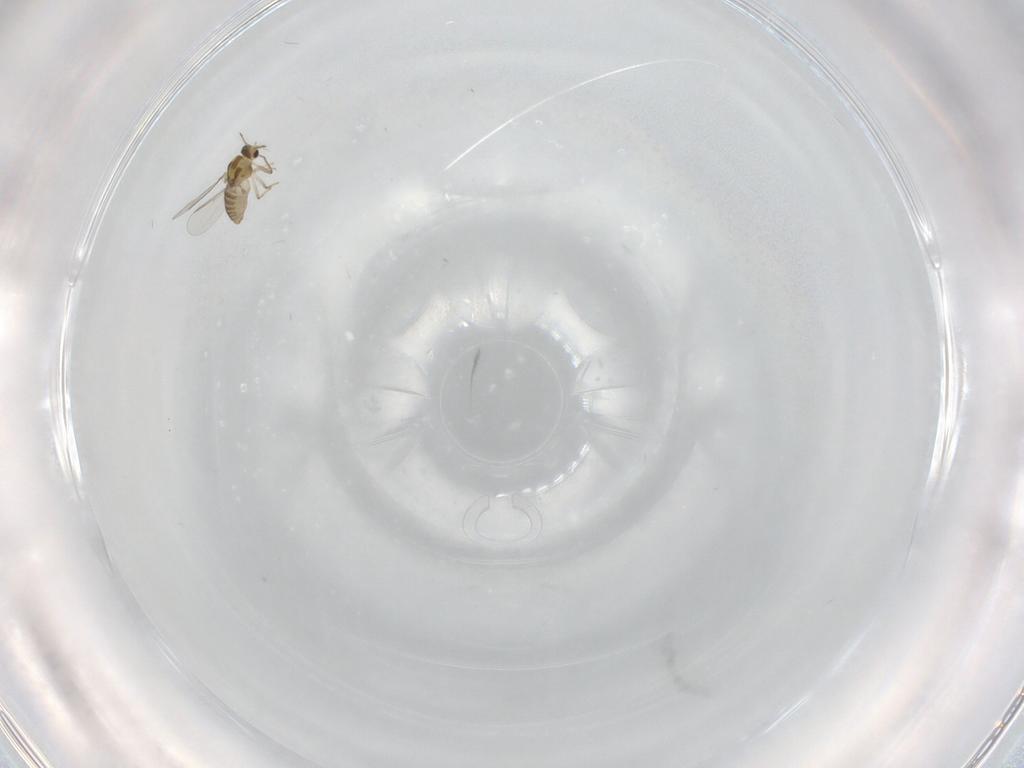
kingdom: Animalia
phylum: Arthropoda
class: Insecta
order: Diptera
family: Chironomidae
